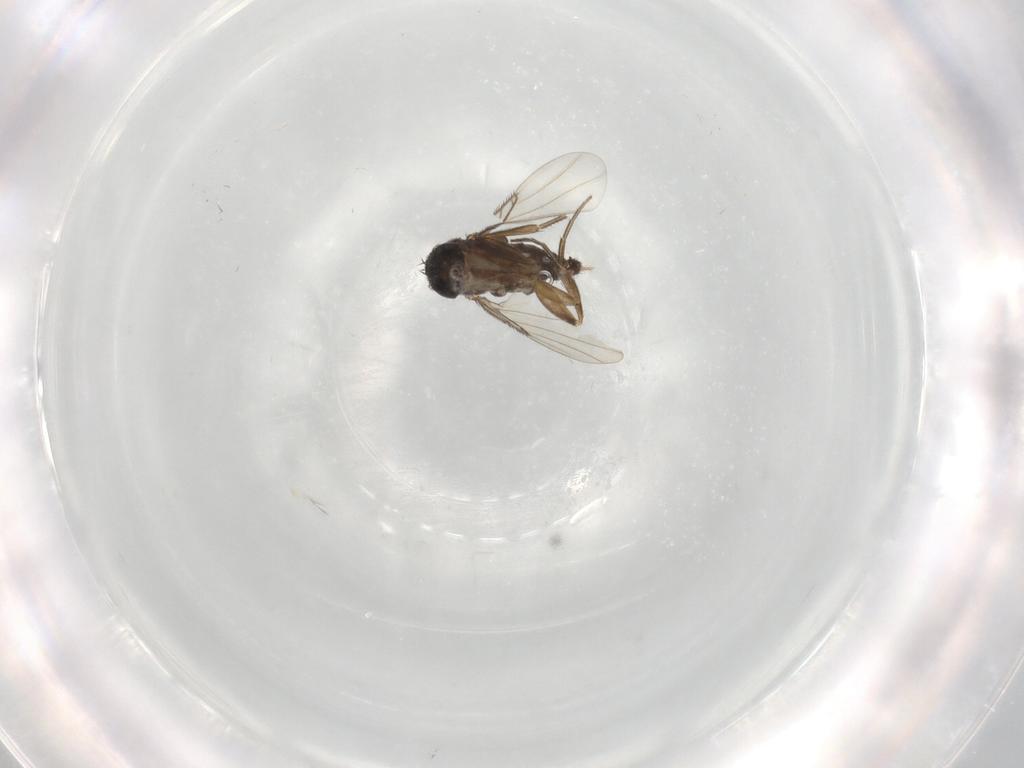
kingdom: Animalia
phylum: Arthropoda
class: Insecta
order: Diptera
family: Phoridae
